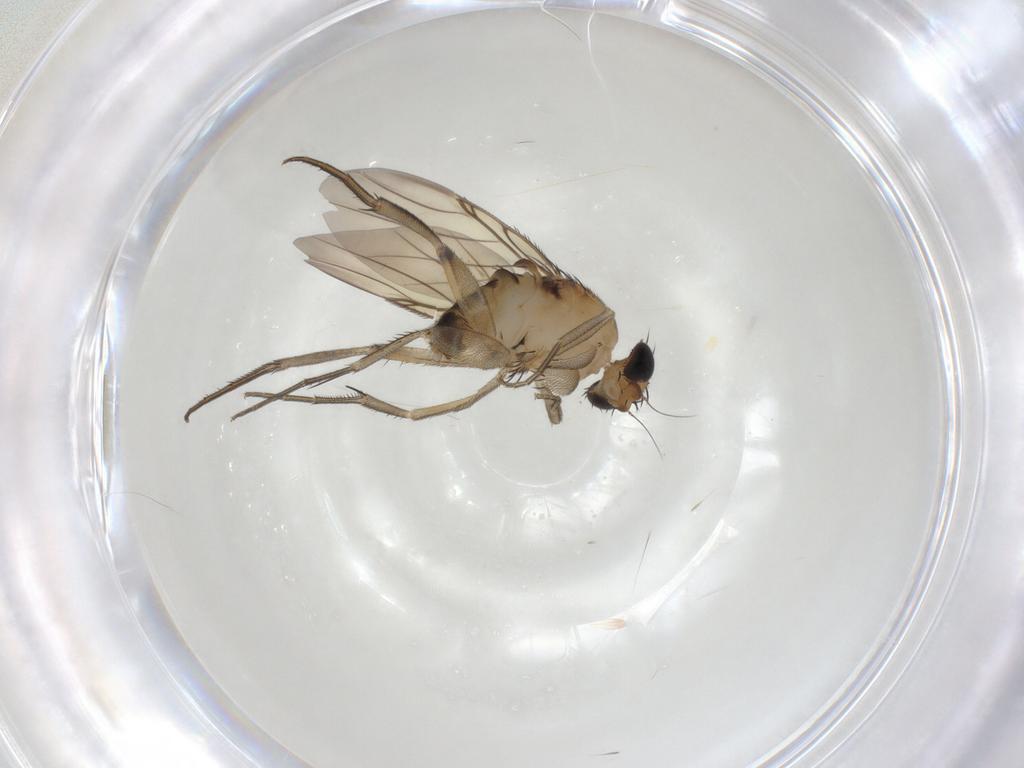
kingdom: Animalia
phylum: Arthropoda
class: Insecta
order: Diptera
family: Phoridae
